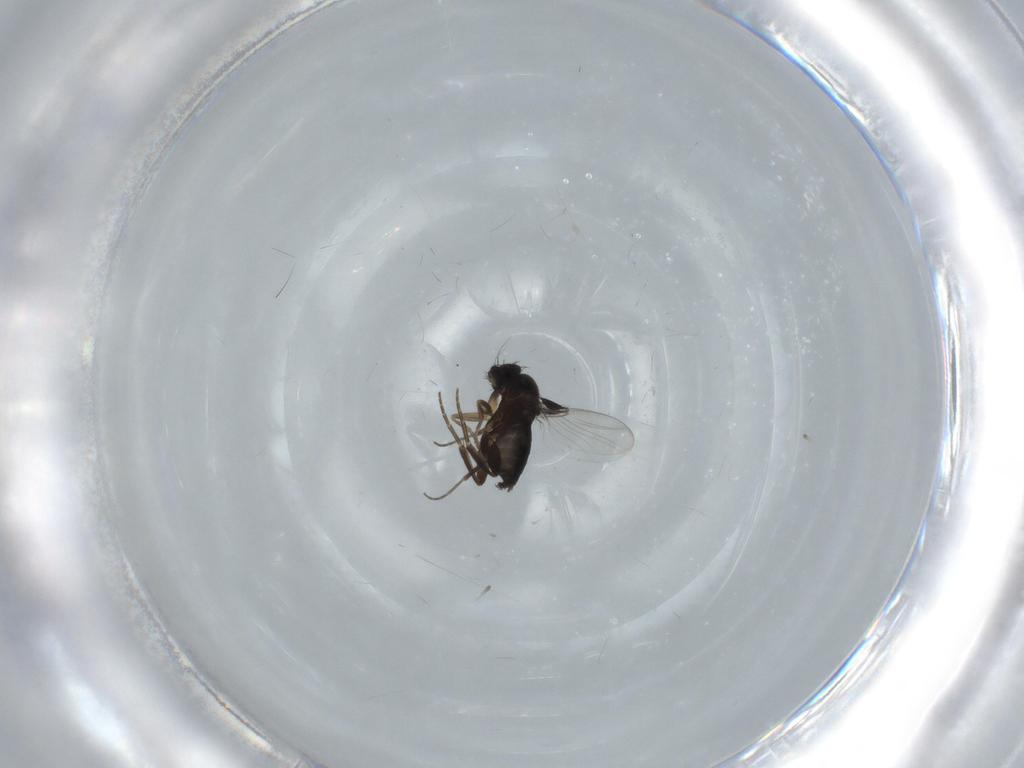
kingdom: Animalia
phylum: Arthropoda
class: Insecta
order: Diptera
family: Phoridae
